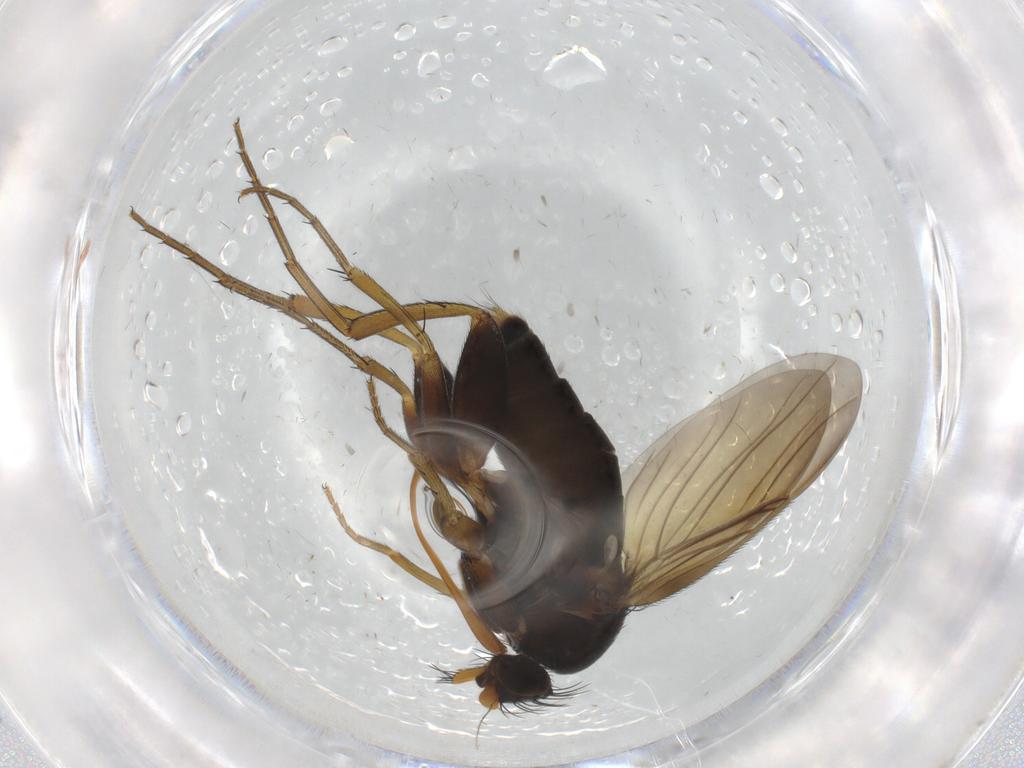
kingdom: Animalia
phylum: Arthropoda
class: Insecta
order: Diptera
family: Phoridae
